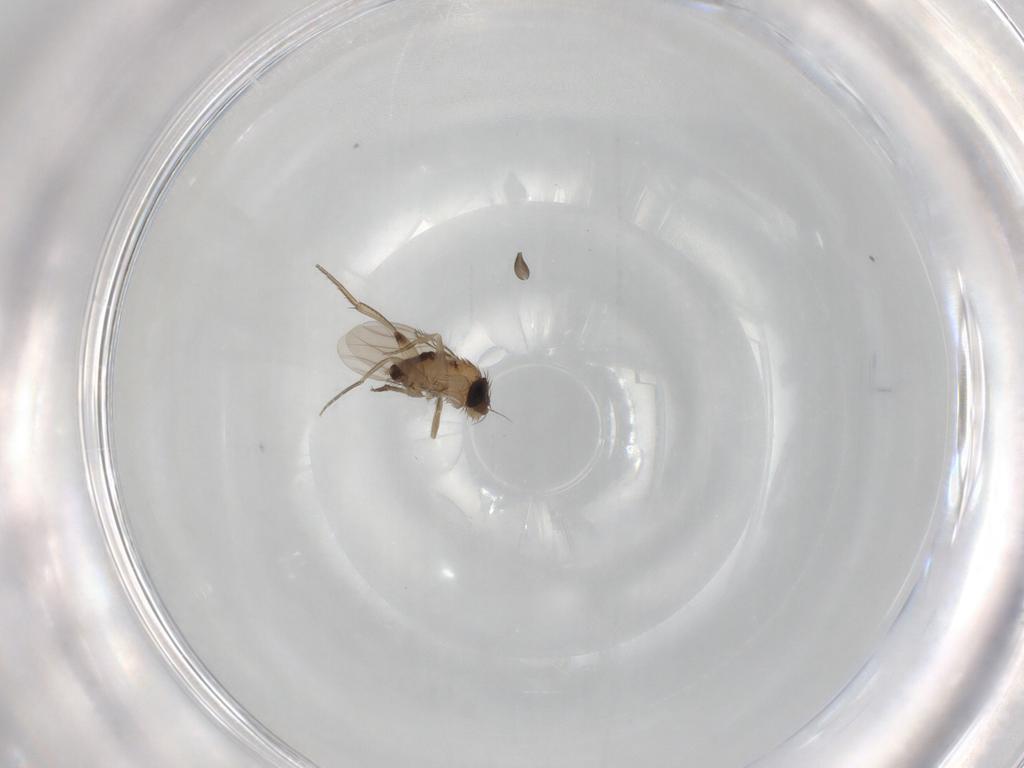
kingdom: Animalia
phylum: Arthropoda
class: Insecta
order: Diptera
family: Phoridae
